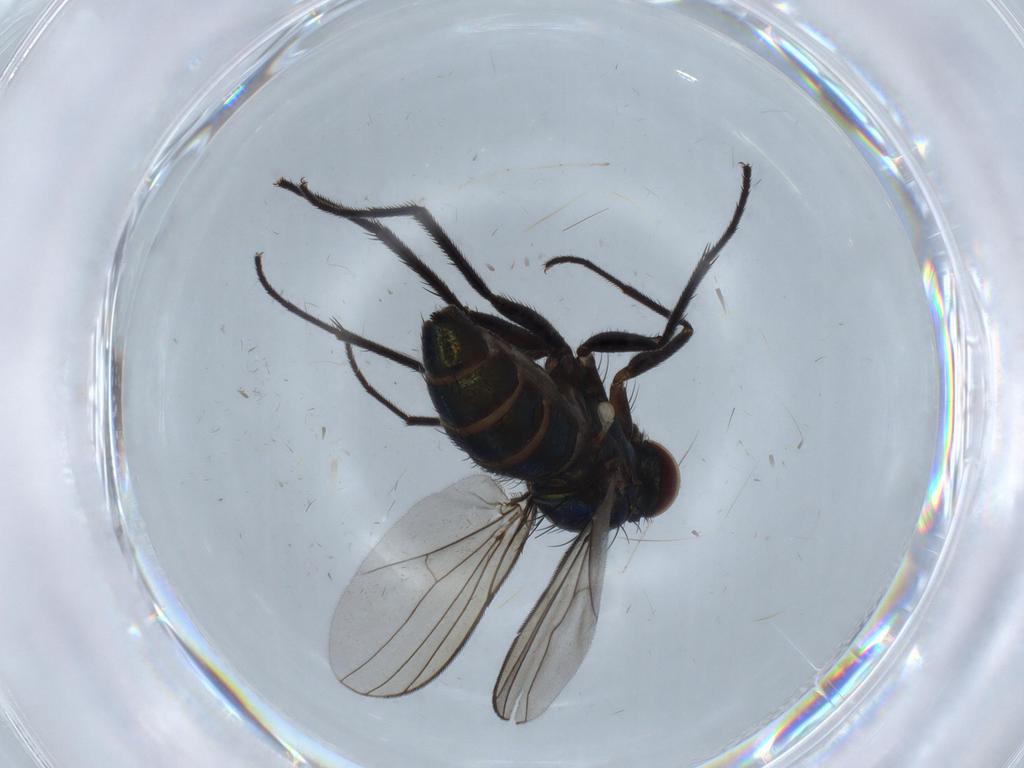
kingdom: Animalia
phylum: Arthropoda
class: Insecta
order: Diptera
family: Dolichopodidae
